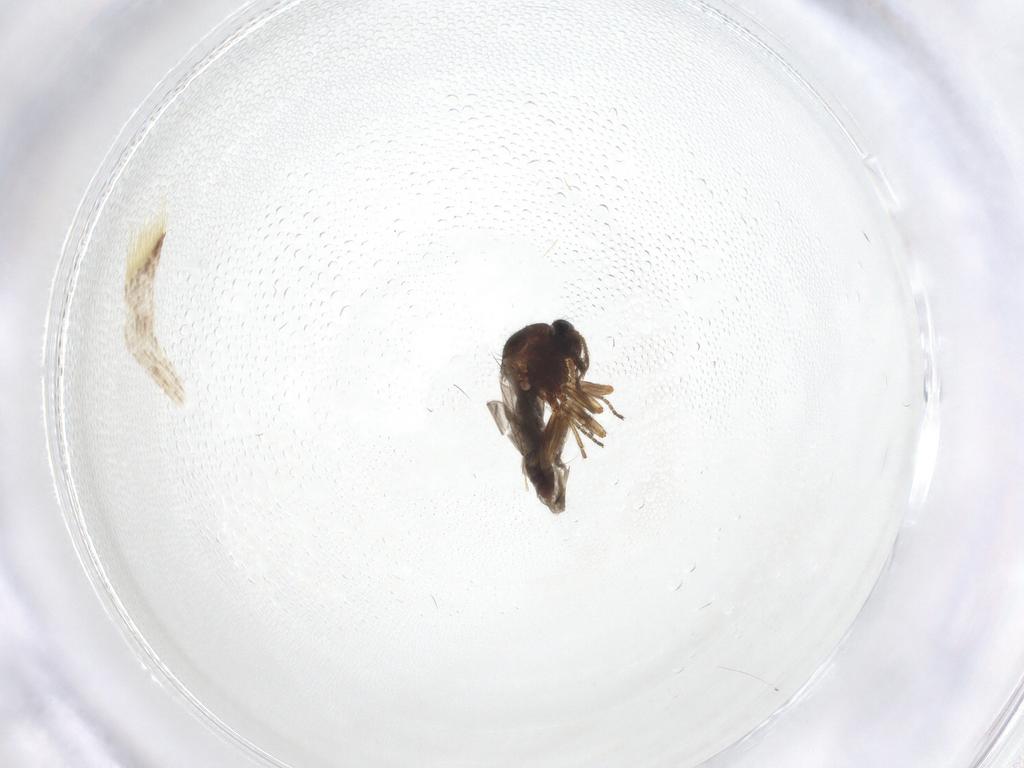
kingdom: Animalia
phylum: Arthropoda
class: Insecta
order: Diptera
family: Ceratopogonidae
